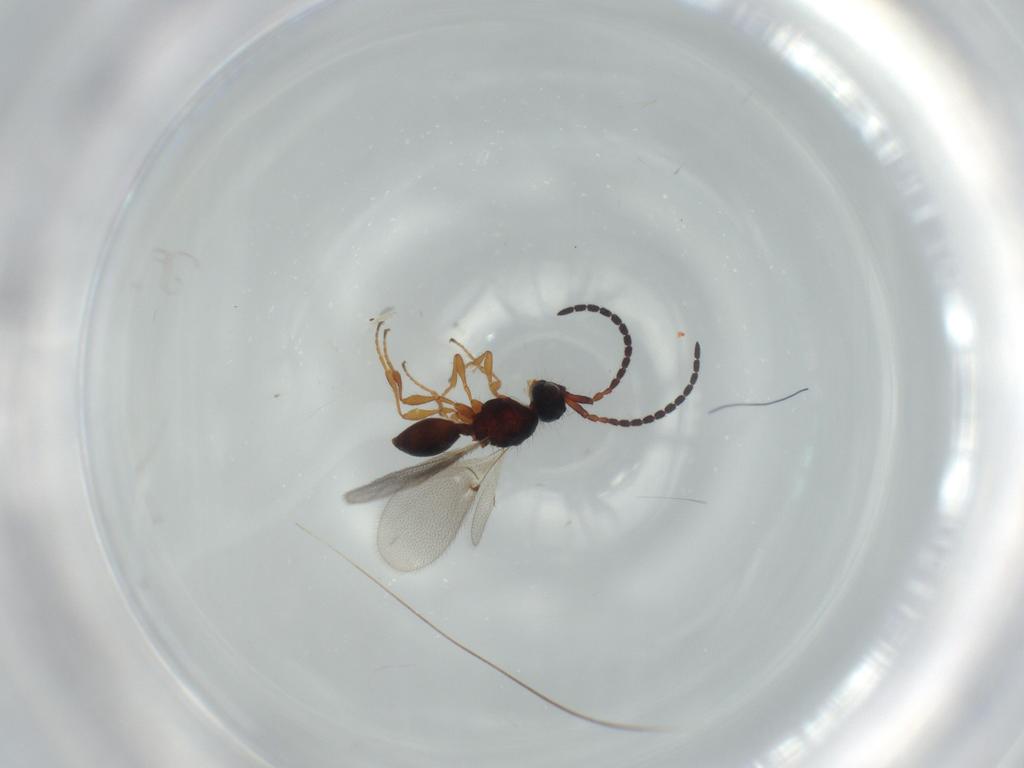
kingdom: Animalia
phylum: Arthropoda
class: Insecta
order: Hymenoptera
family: Diapriidae
